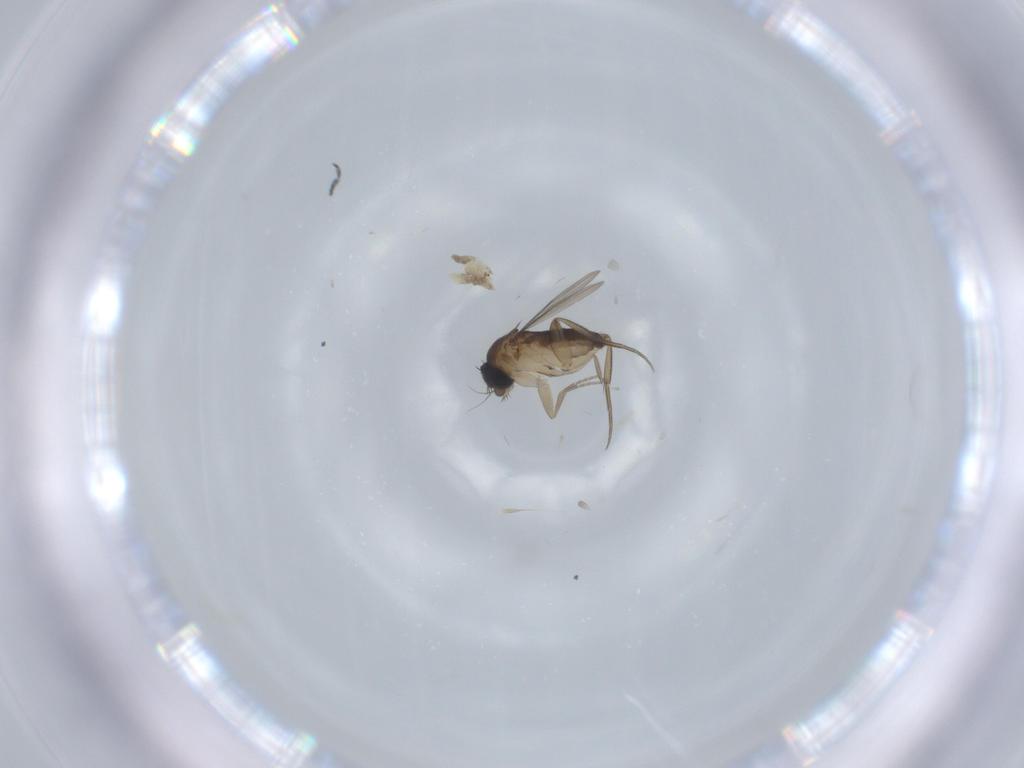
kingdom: Animalia
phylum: Arthropoda
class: Insecta
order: Diptera
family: Phoridae
